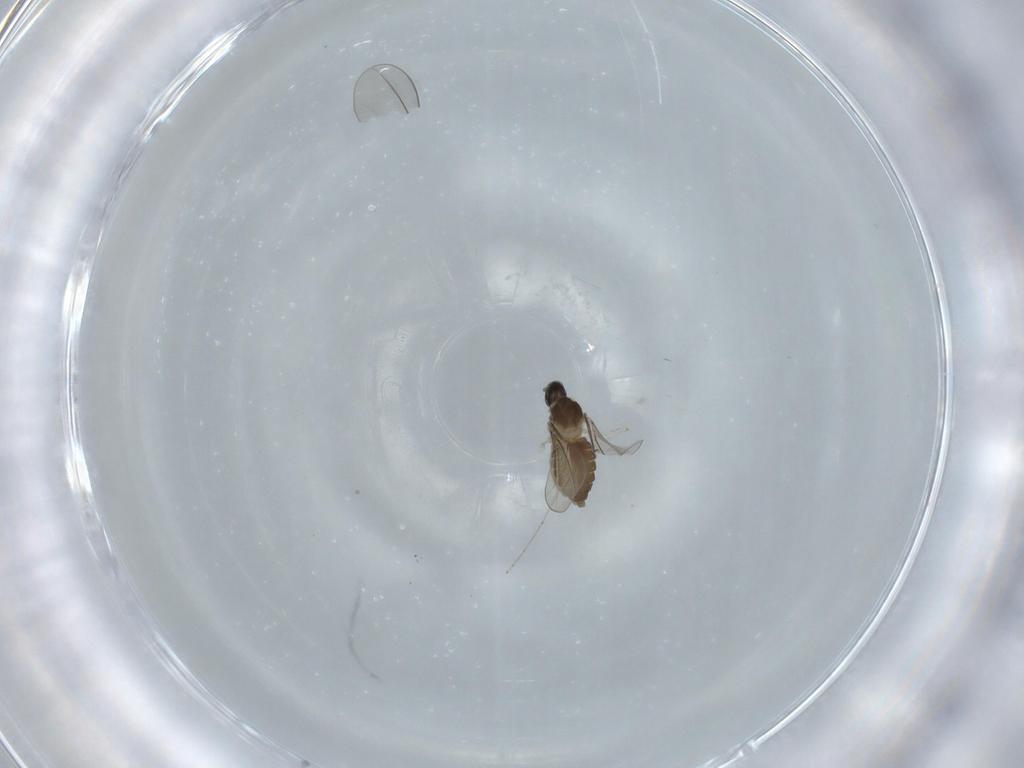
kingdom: Animalia
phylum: Arthropoda
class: Insecta
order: Diptera
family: Cecidomyiidae
